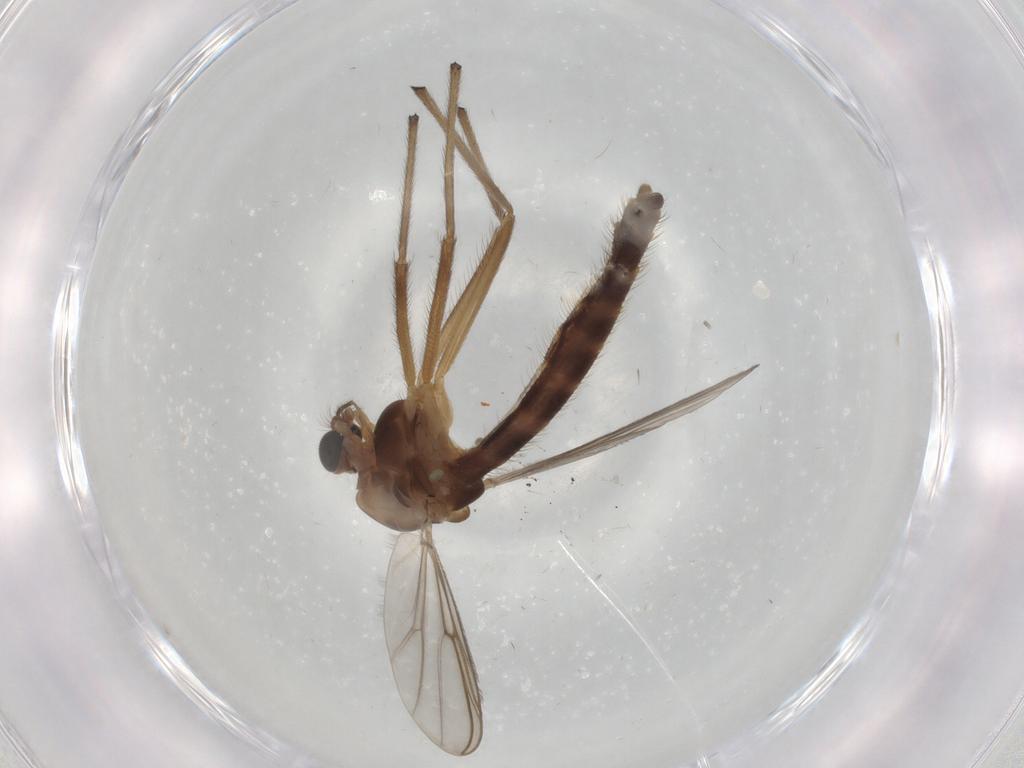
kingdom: Animalia
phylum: Arthropoda
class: Insecta
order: Diptera
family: Chironomidae
